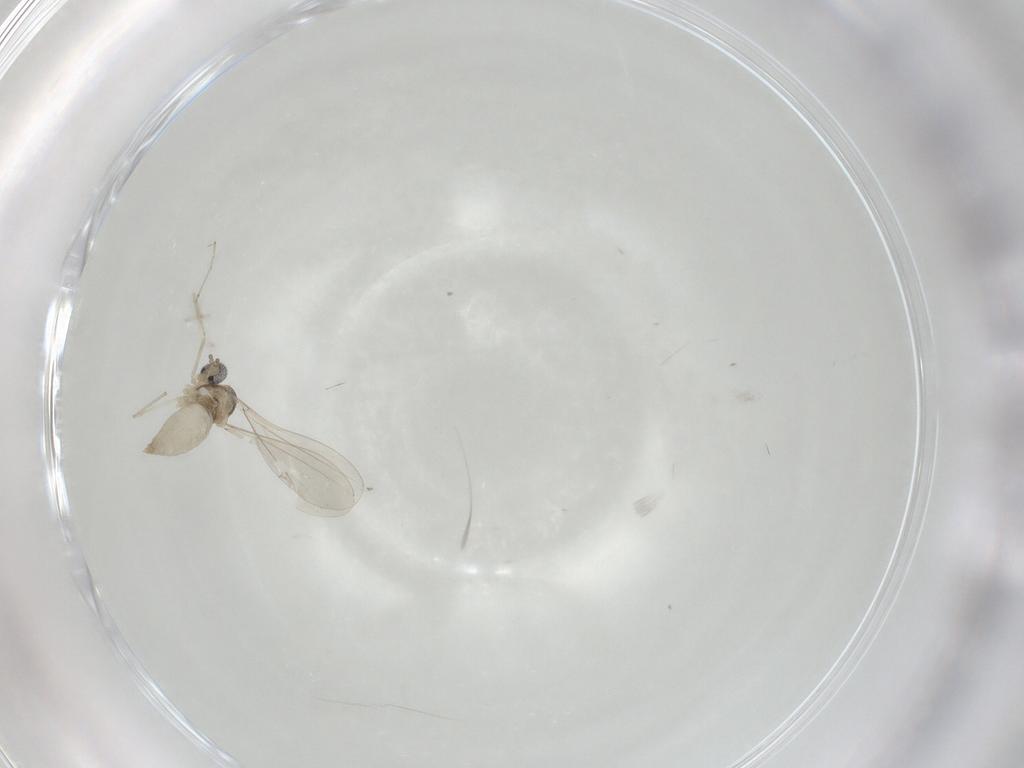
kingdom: Animalia
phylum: Arthropoda
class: Insecta
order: Diptera
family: Cecidomyiidae
